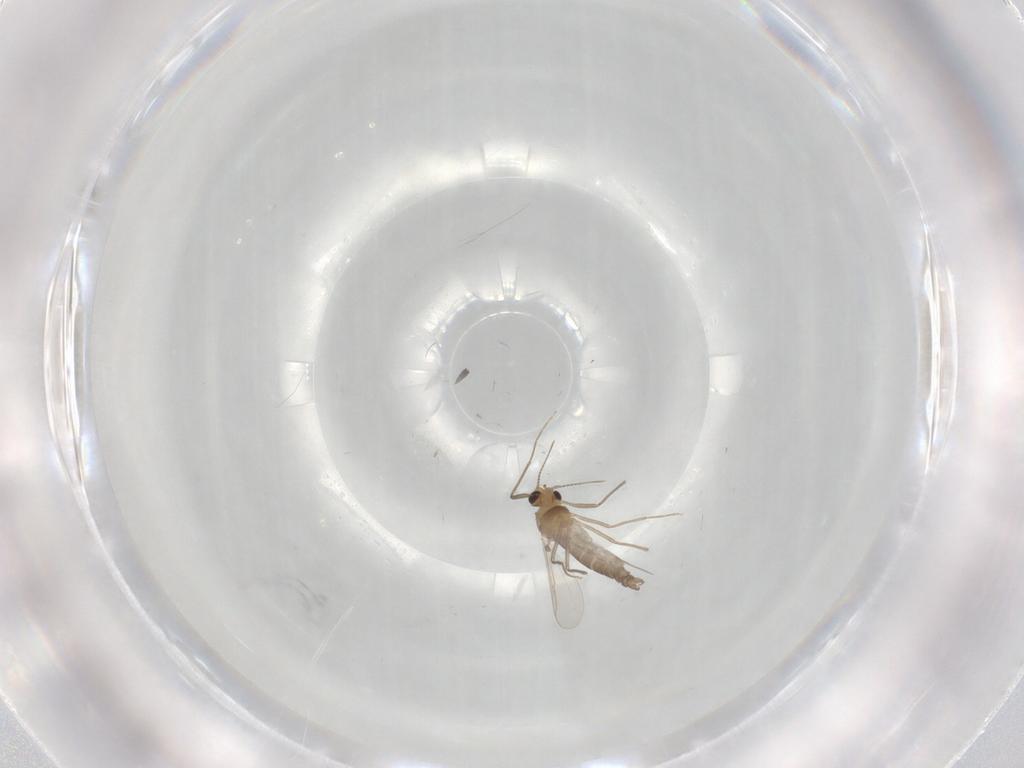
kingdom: Animalia
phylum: Arthropoda
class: Insecta
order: Diptera
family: Chironomidae
